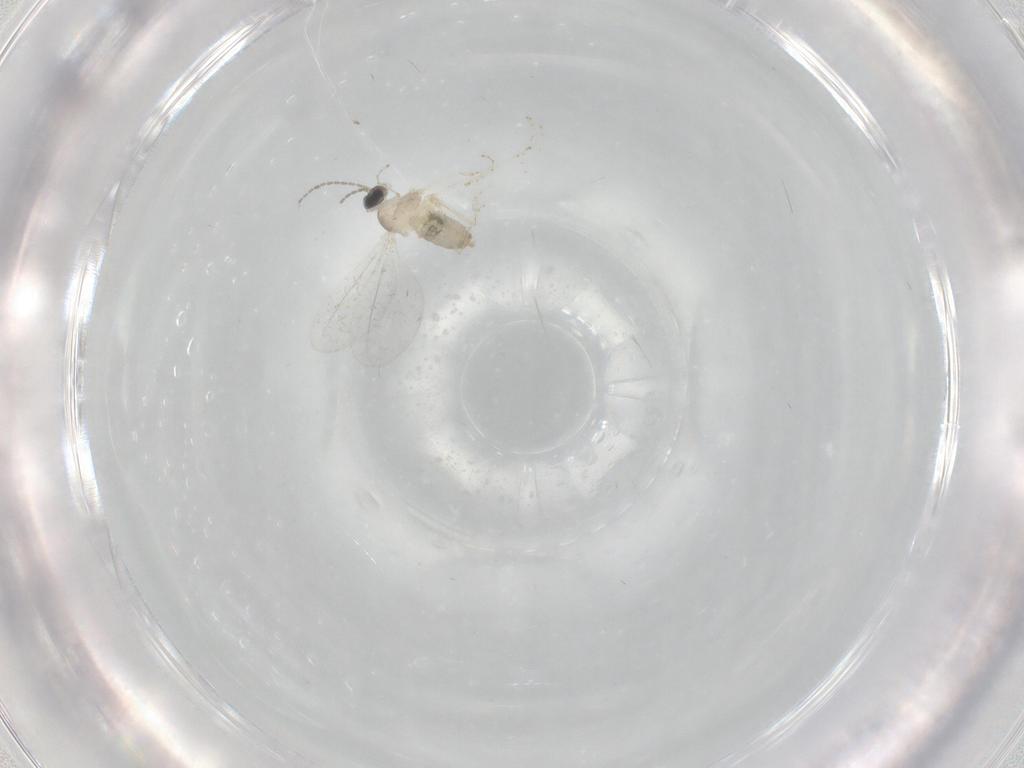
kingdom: Animalia
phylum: Arthropoda
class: Insecta
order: Diptera
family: Cecidomyiidae
